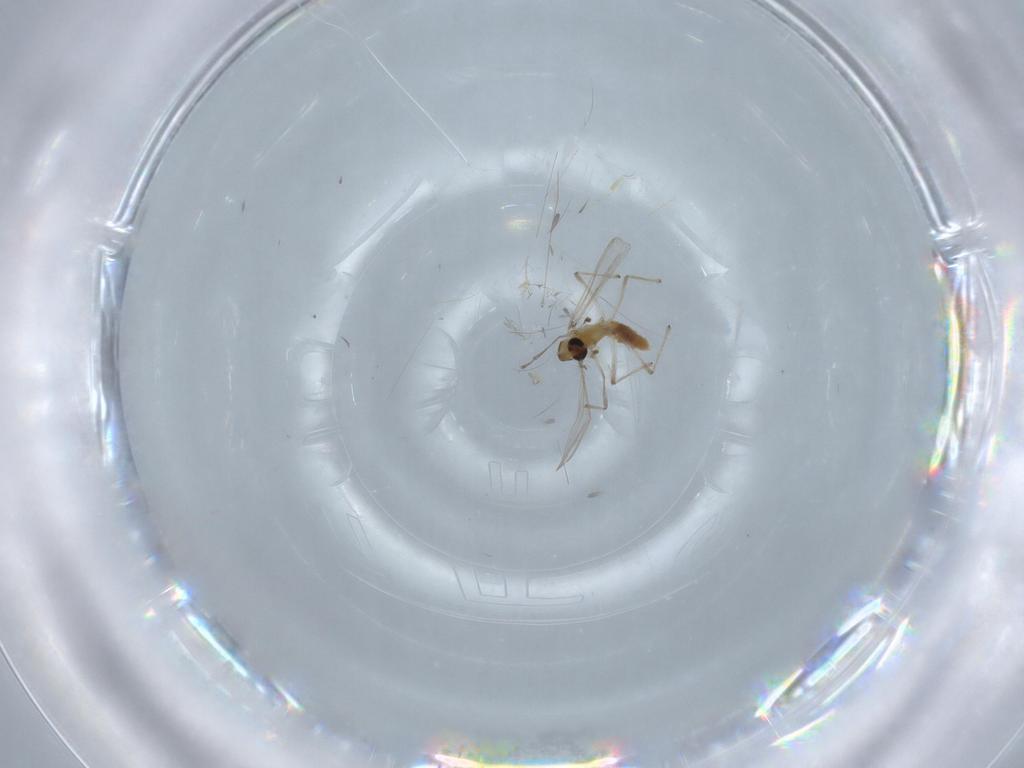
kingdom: Animalia
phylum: Arthropoda
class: Insecta
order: Diptera
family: Chironomidae
